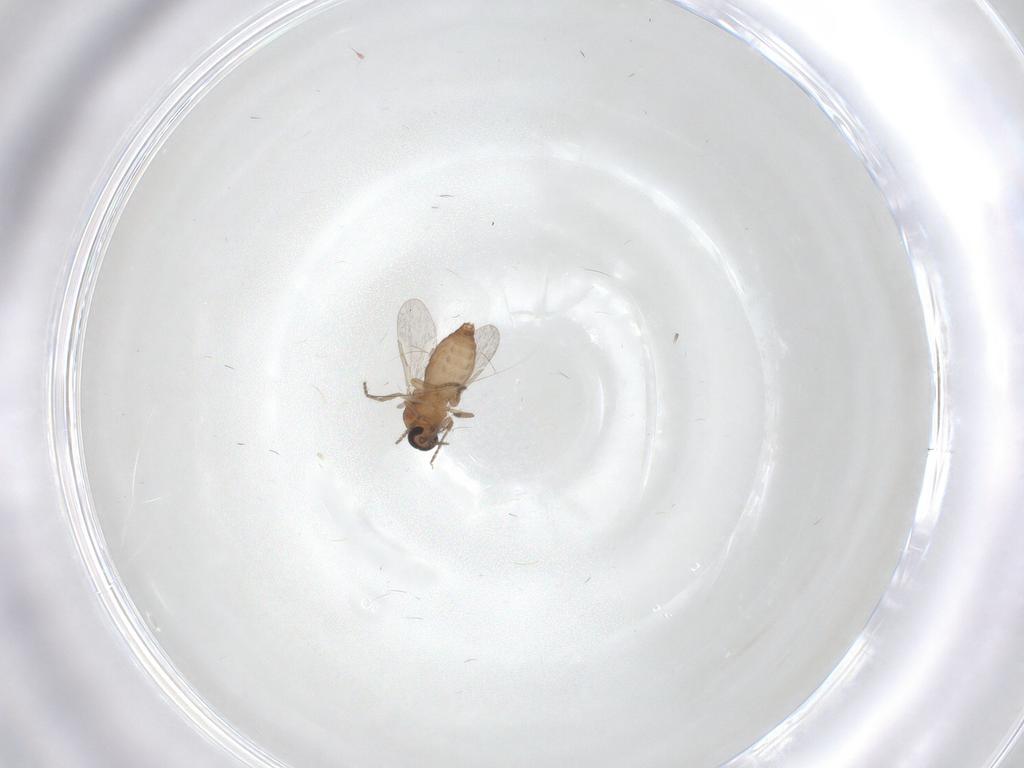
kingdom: Animalia
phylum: Arthropoda
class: Insecta
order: Diptera
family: Ceratopogonidae
